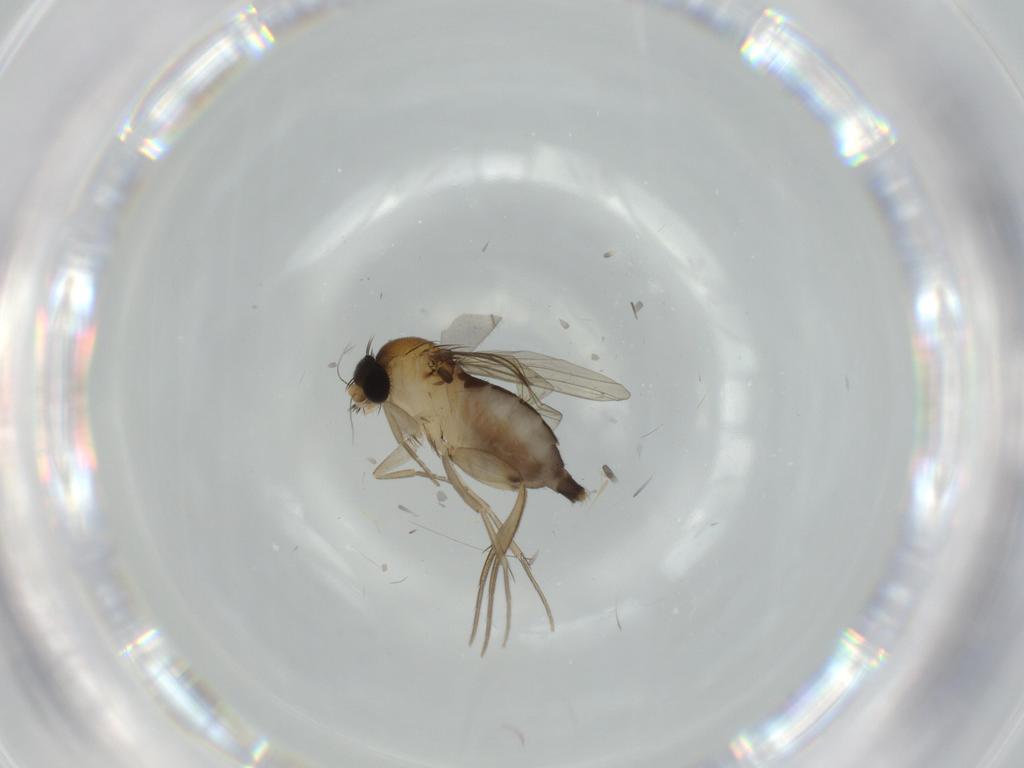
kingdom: Animalia
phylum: Arthropoda
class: Insecta
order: Diptera
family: Phoridae
